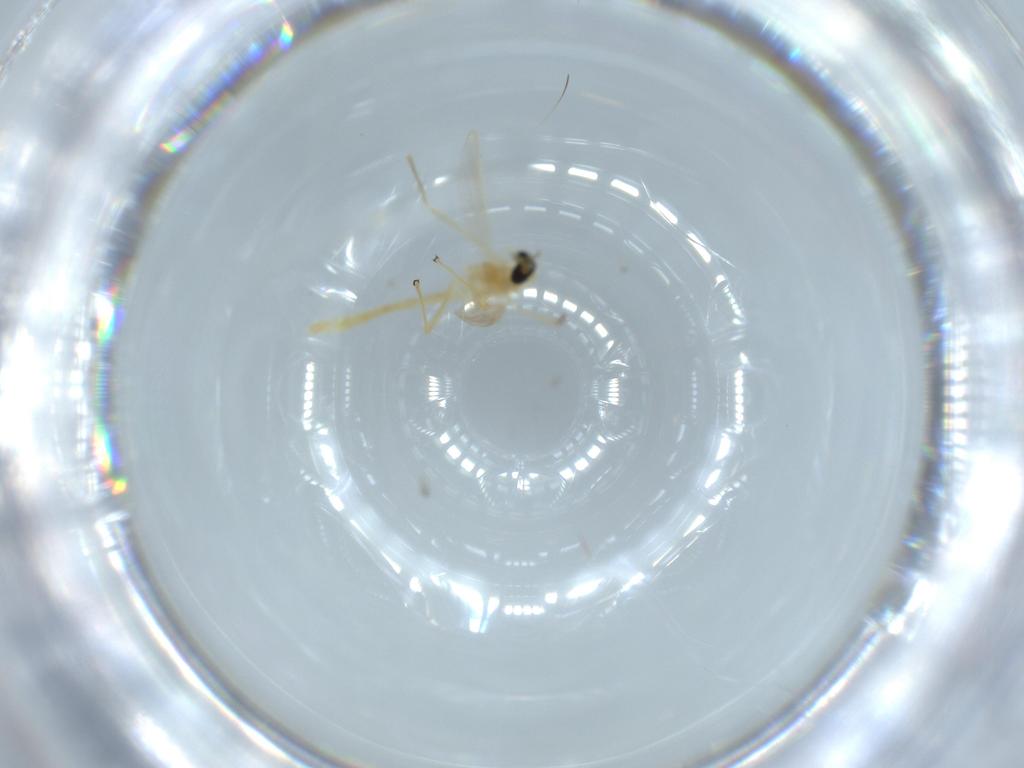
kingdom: Animalia
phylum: Arthropoda
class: Insecta
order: Diptera
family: Chironomidae
